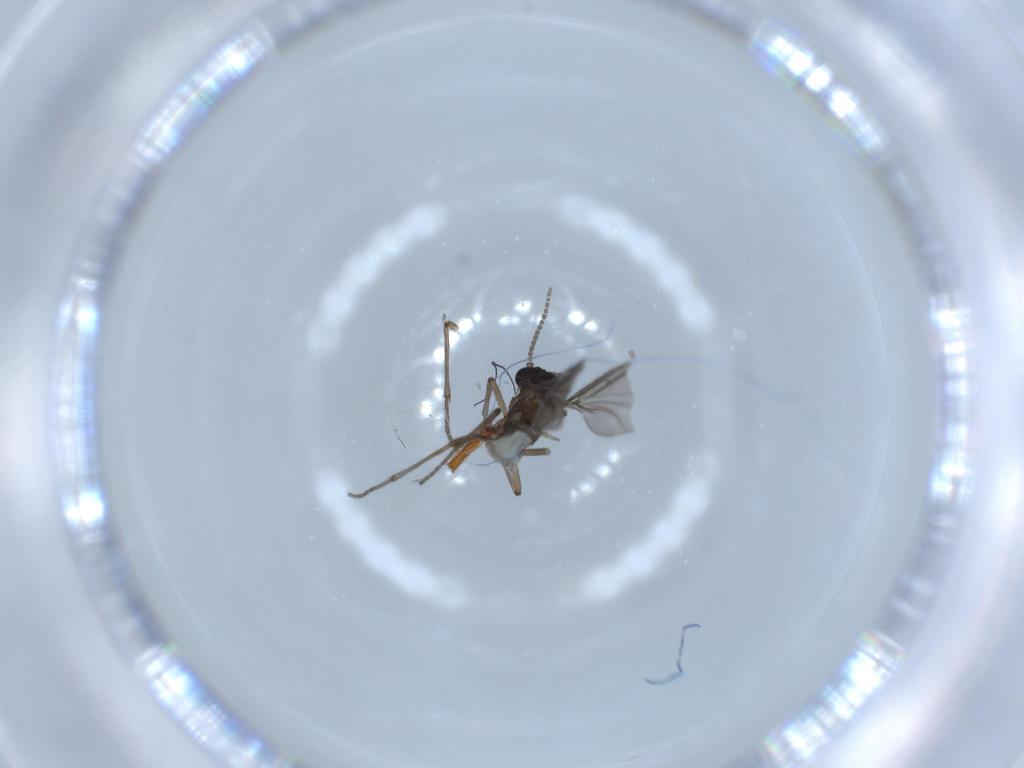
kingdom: Animalia
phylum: Arthropoda
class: Insecta
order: Diptera
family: Sciaridae
